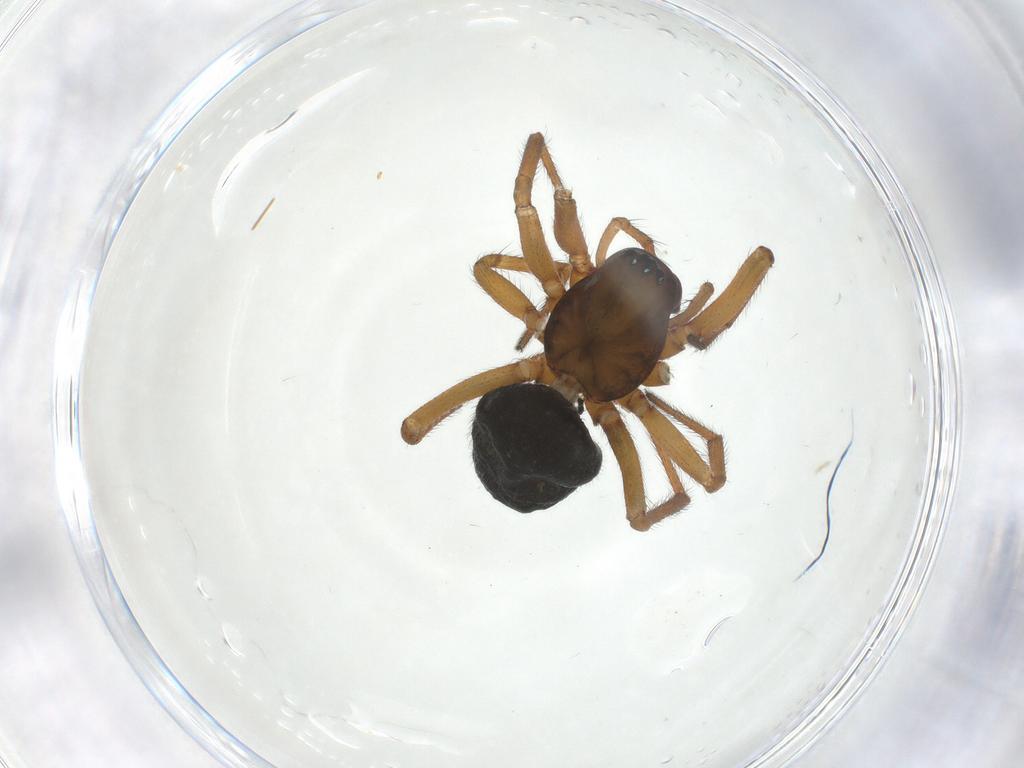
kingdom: Animalia
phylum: Arthropoda
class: Arachnida
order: Araneae
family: Linyphiidae
